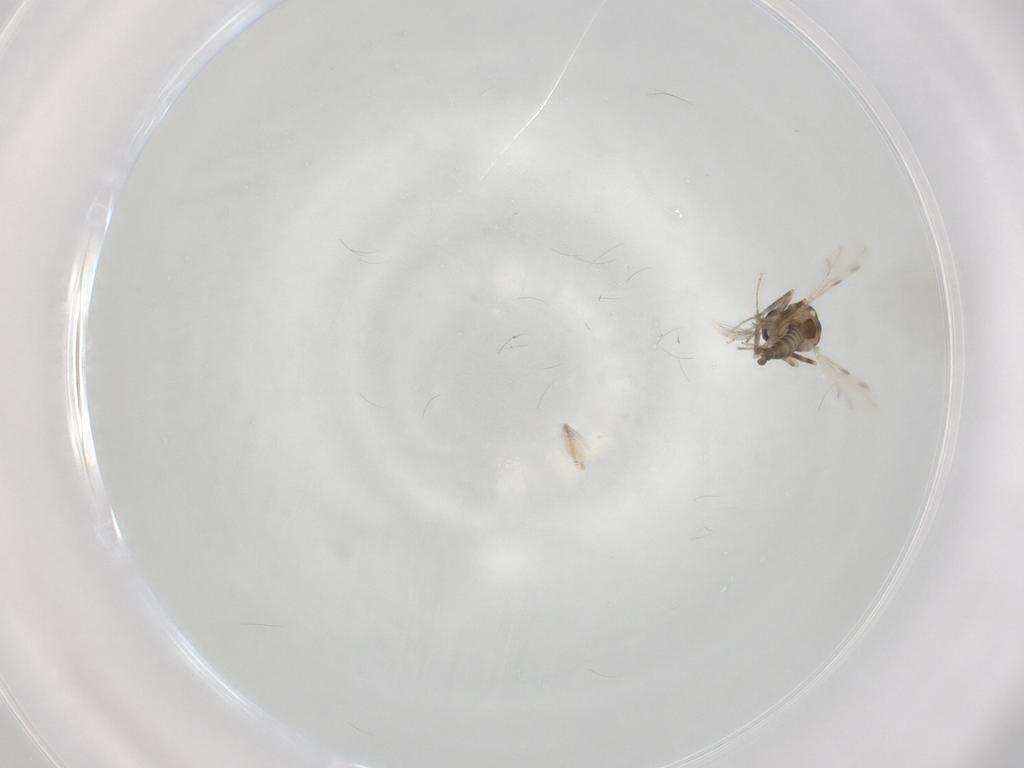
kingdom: Animalia
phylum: Arthropoda
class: Insecta
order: Diptera
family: Ceratopogonidae
